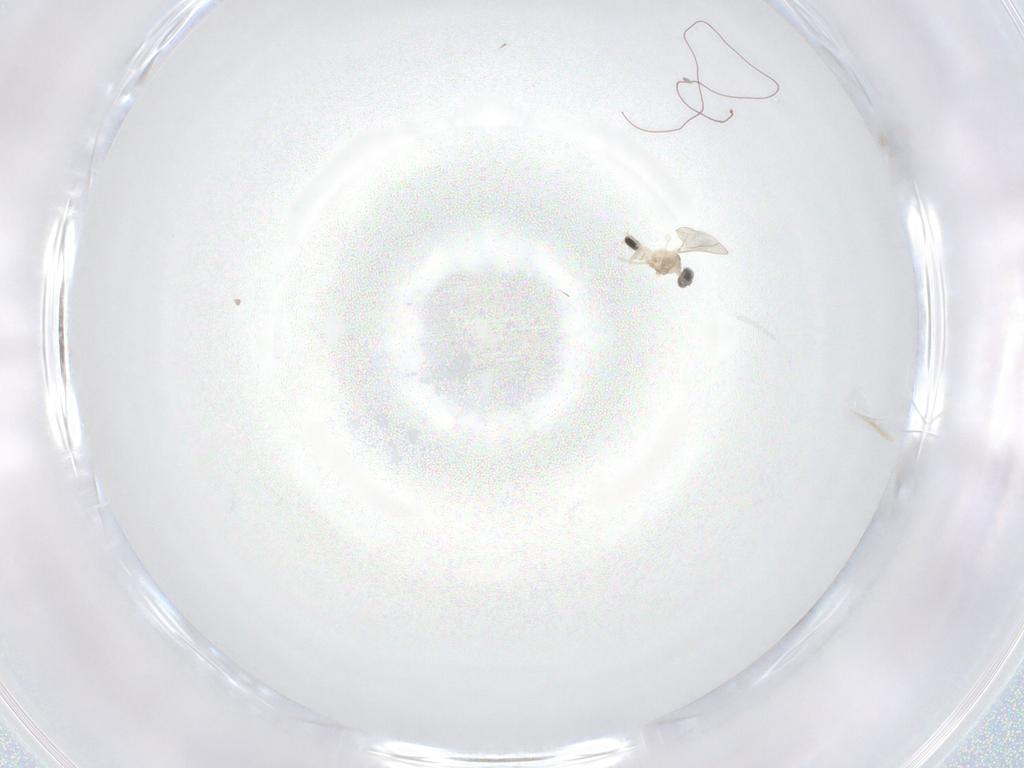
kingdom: Animalia
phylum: Arthropoda
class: Insecta
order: Diptera
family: Cecidomyiidae
